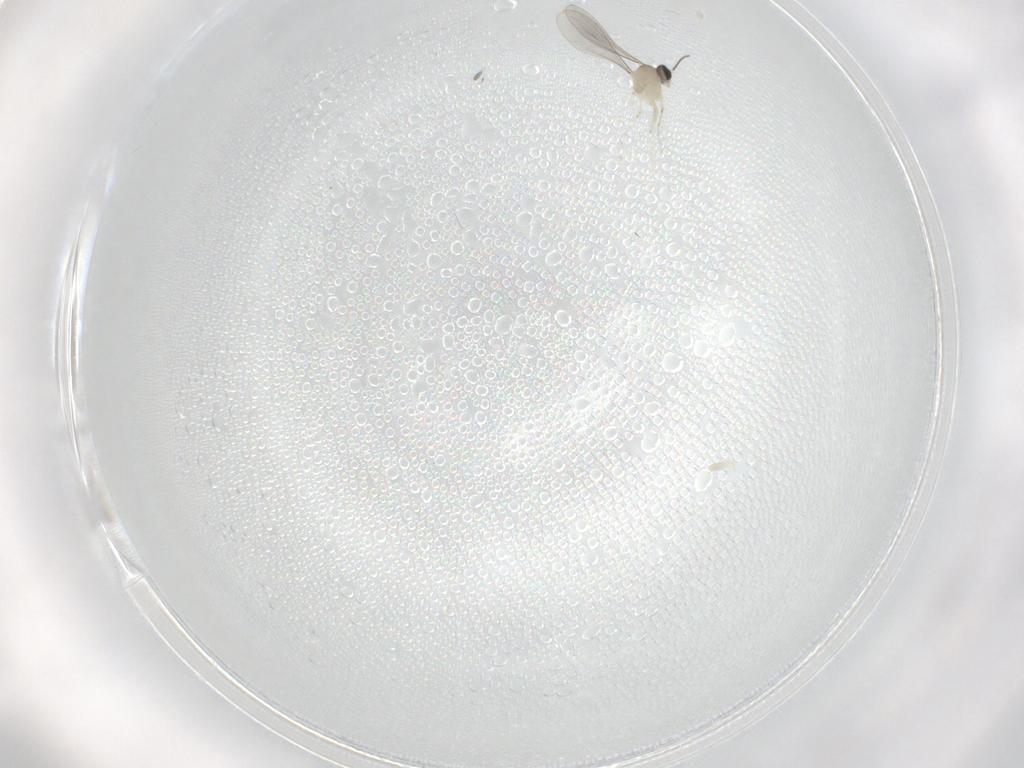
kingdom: Animalia
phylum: Arthropoda
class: Insecta
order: Diptera
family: Cecidomyiidae
